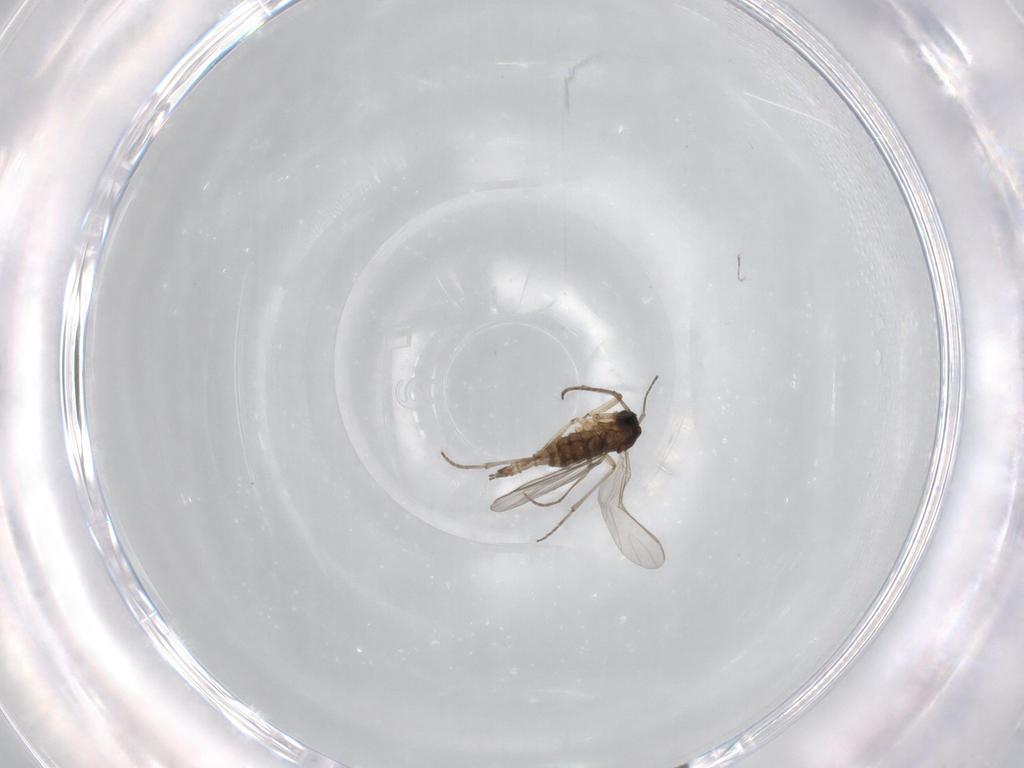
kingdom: Animalia
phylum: Arthropoda
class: Insecta
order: Diptera
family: Sciaridae
